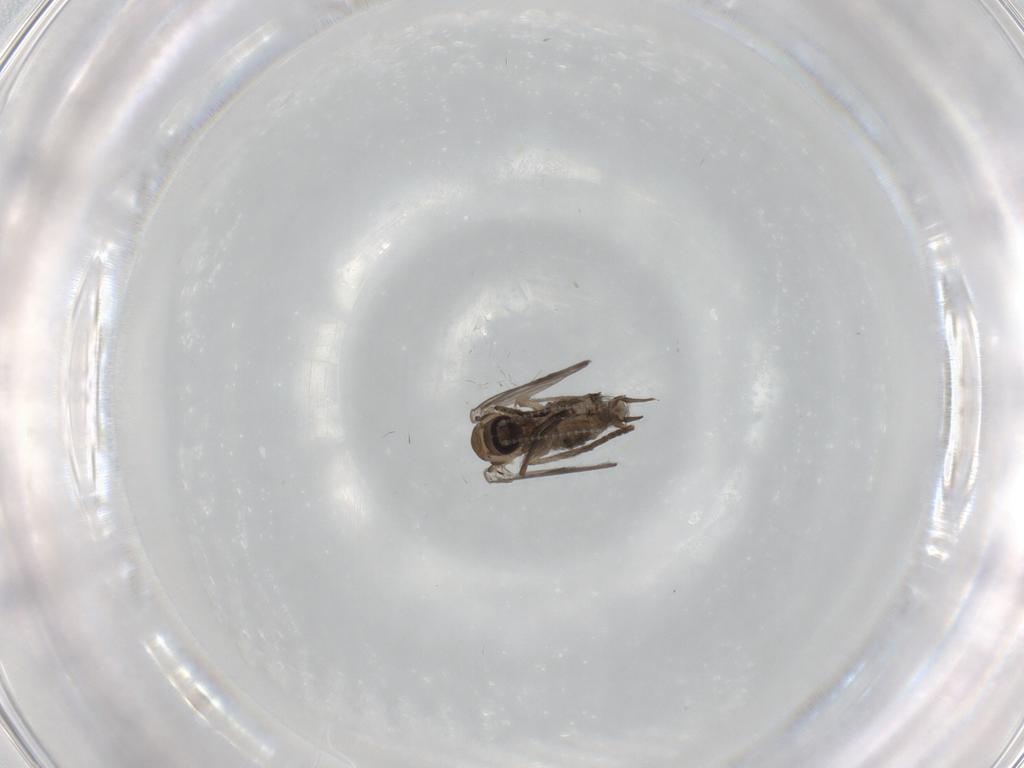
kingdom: Animalia
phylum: Arthropoda
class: Insecta
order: Diptera
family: Psychodidae
